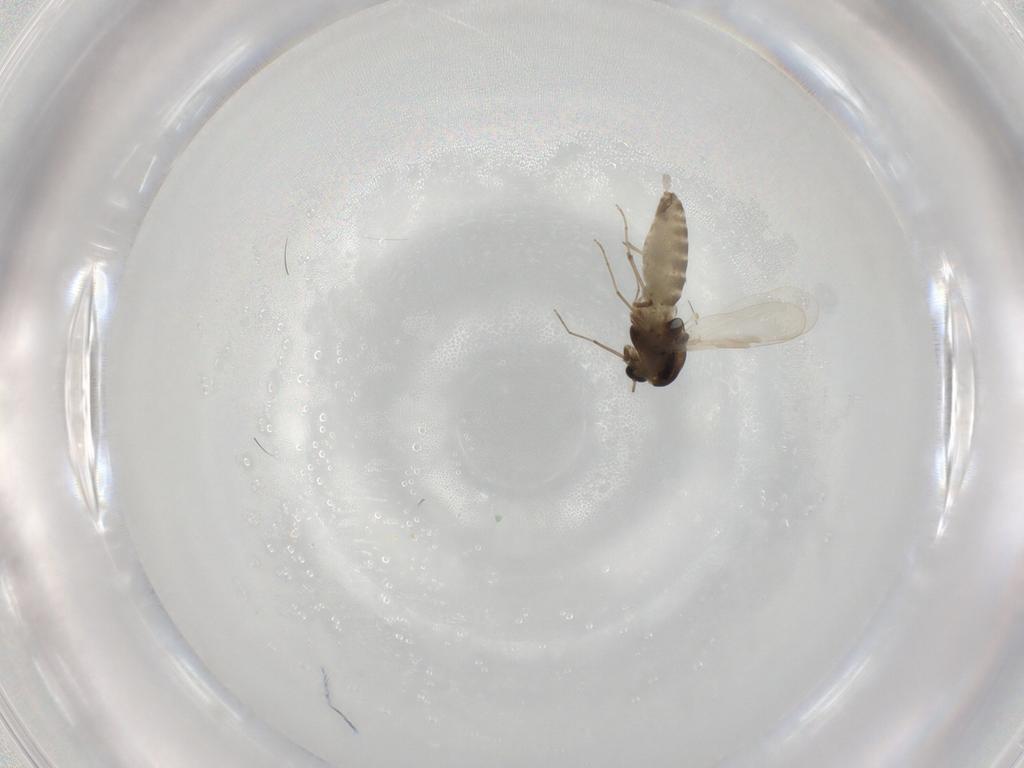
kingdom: Animalia
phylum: Arthropoda
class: Insecta
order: Diptera
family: Chironomidae
